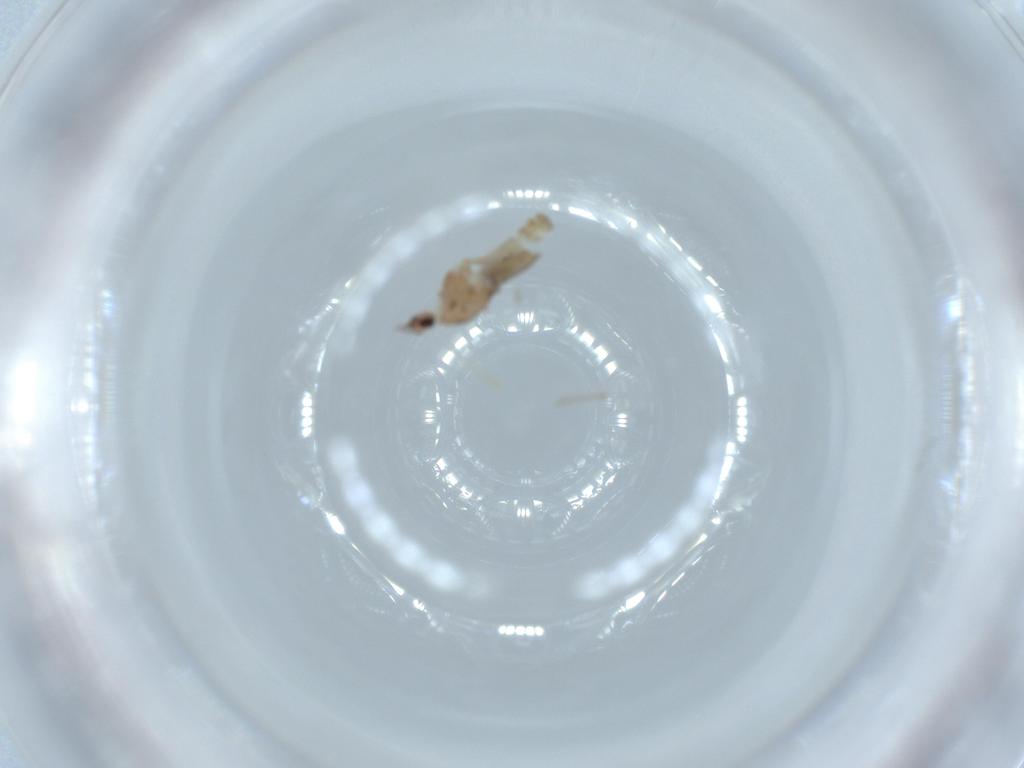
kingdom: Animalia
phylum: Arthropoda
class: Insecta
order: Diptera
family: Chironomidae
